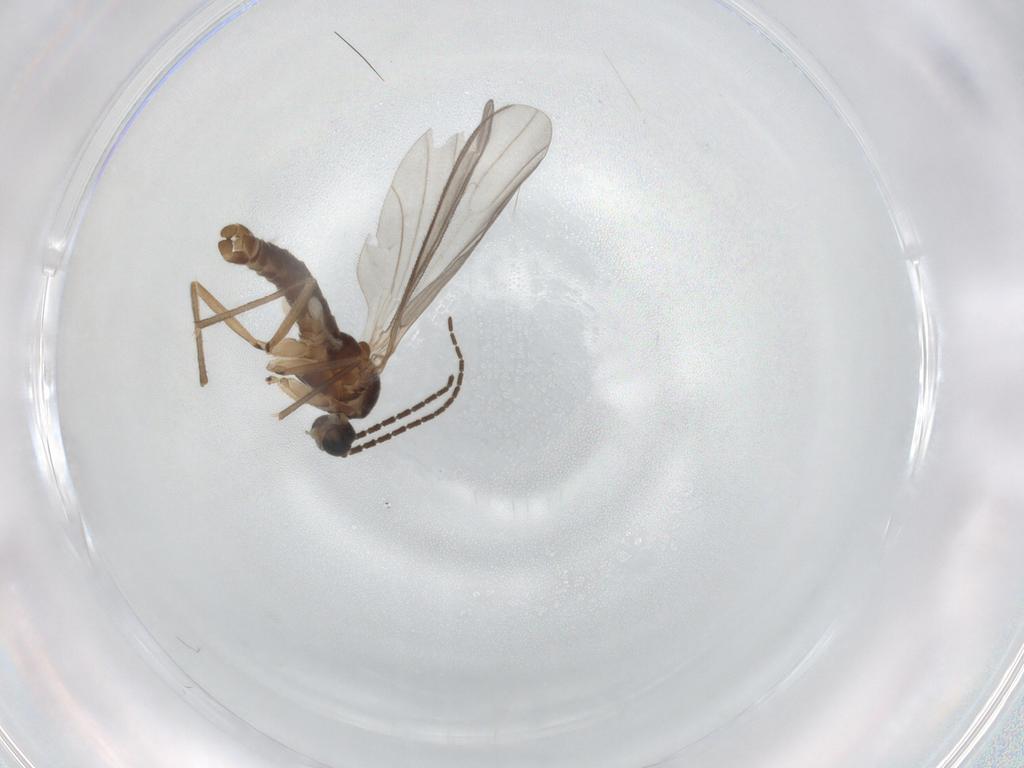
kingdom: Animalia
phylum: Arthropoda
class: Insecta
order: Diptera
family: Sciaridae
